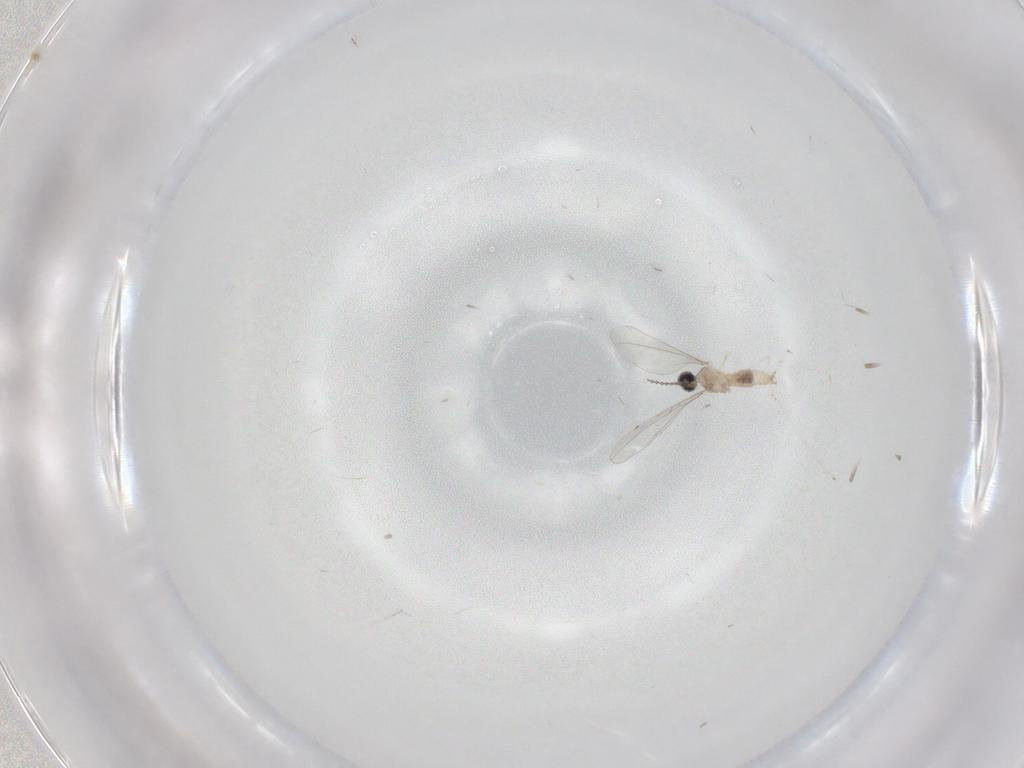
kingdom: Animalia
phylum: Arthropoda
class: Insecta
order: Diptera
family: Cecidomyiidae
